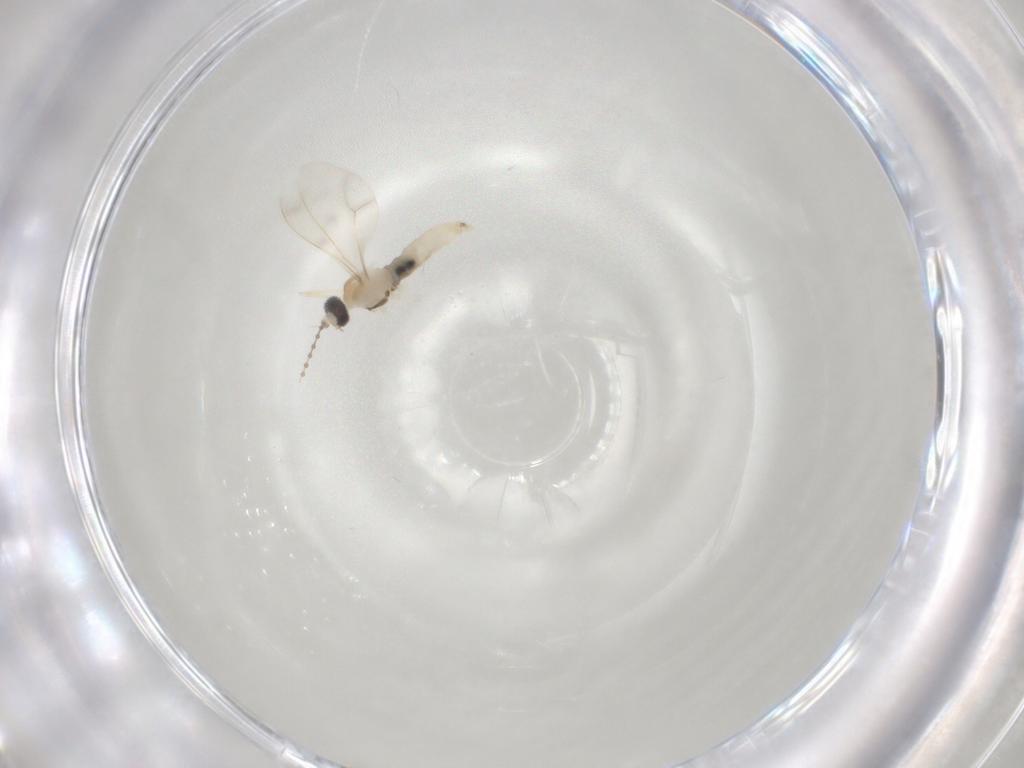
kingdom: Animalia
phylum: Arthropoda
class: Insecta
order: Diptera
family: Cecidomyiidae
